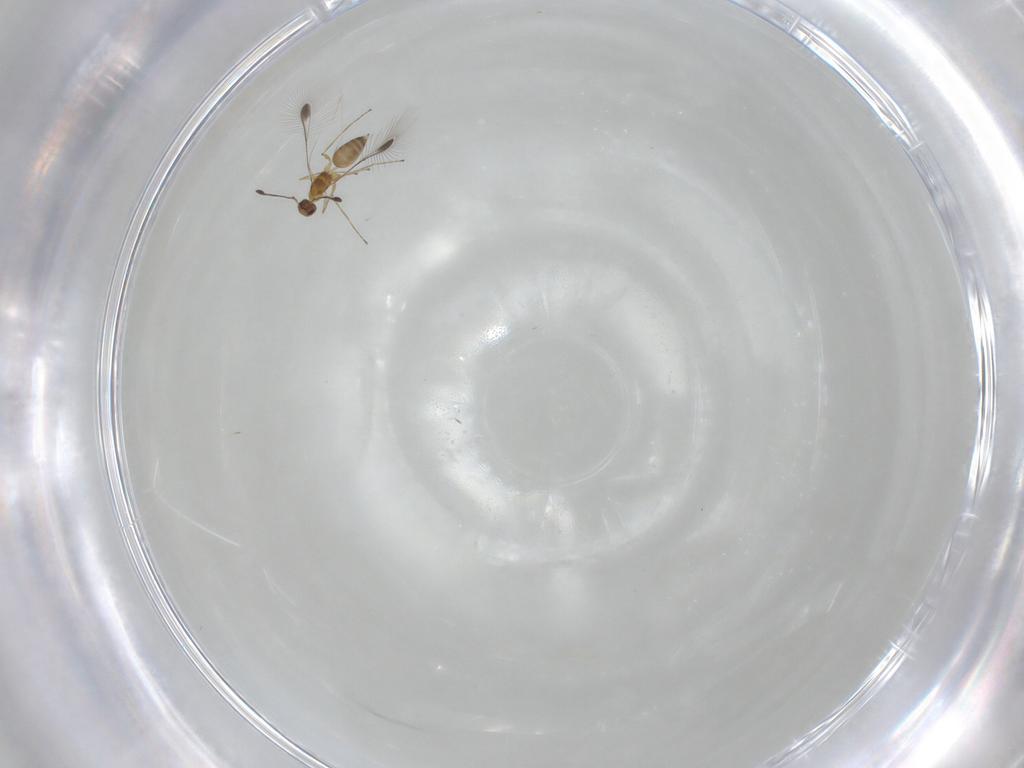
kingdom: Animalia
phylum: Arthropoda
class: Insecta
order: Hymenoptera
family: Mymaridae
